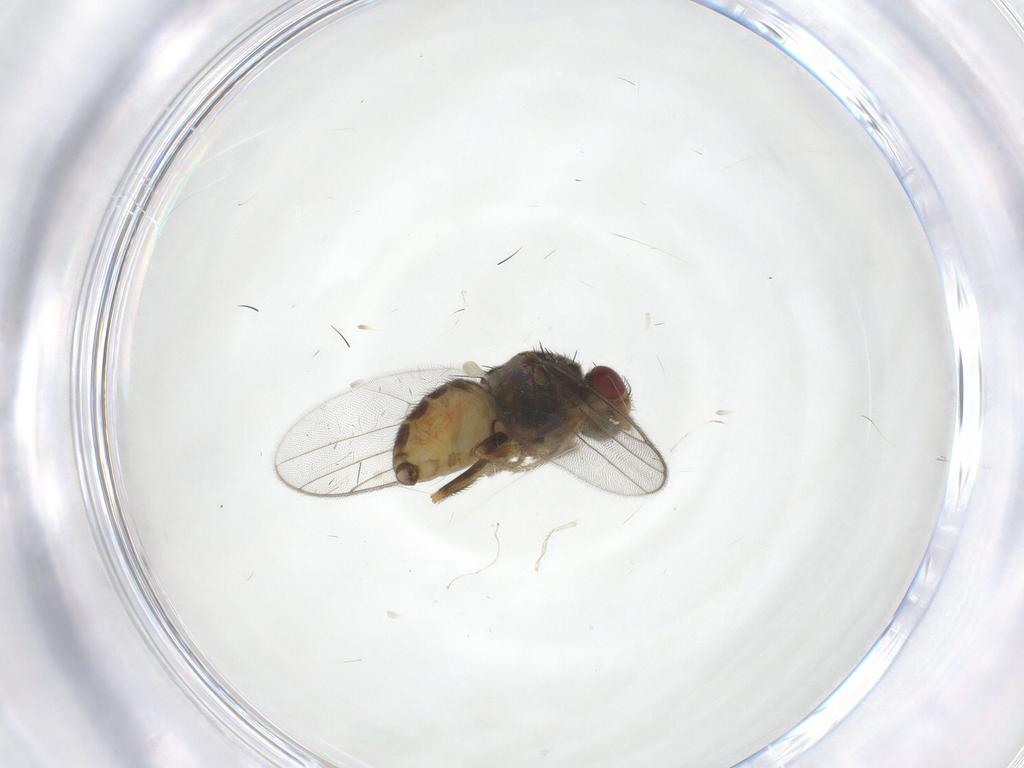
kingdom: Animalia
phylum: Arthropoda
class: Insecta
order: Diptera
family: Chloropidae
